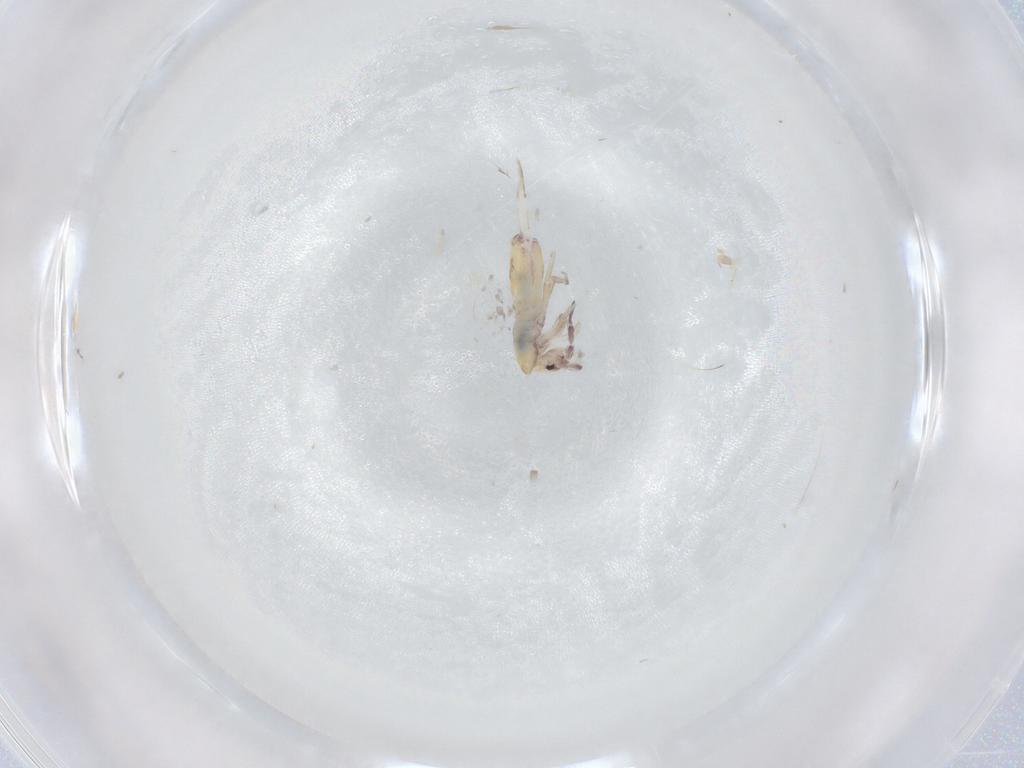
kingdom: Animalia
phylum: Arthropoda
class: Collembola
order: Entomobryomorpha
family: Entomobryidae
